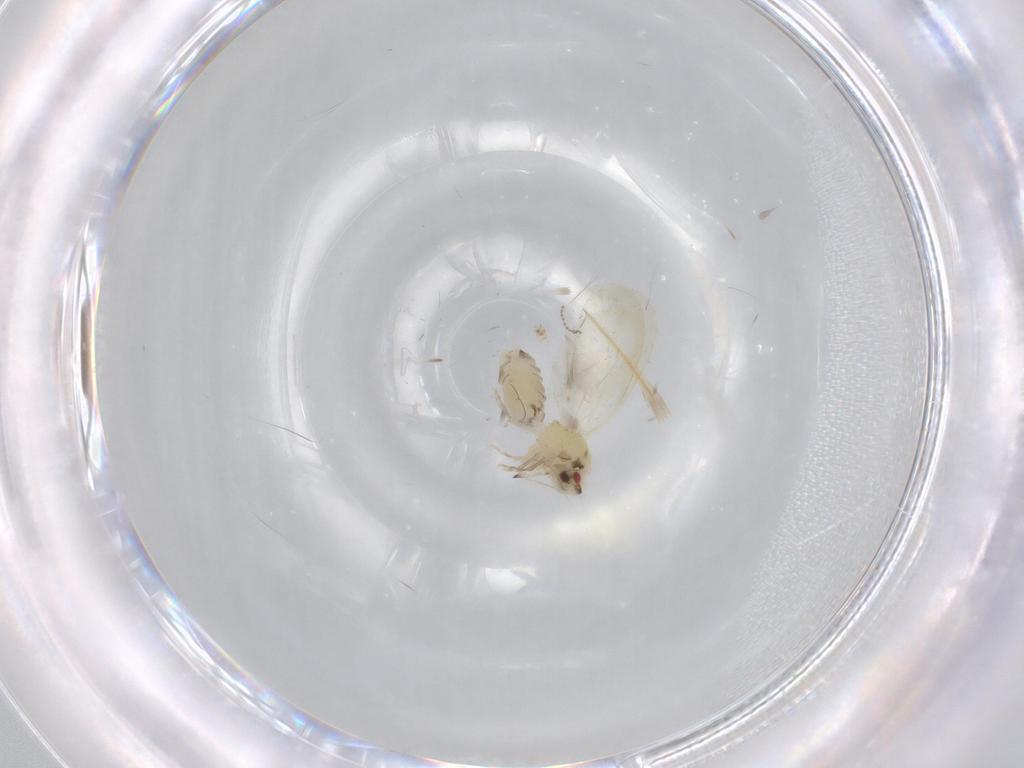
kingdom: Animalia
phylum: Arthropoda
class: Insecta
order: Hemiptera
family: Aleyrodidae
